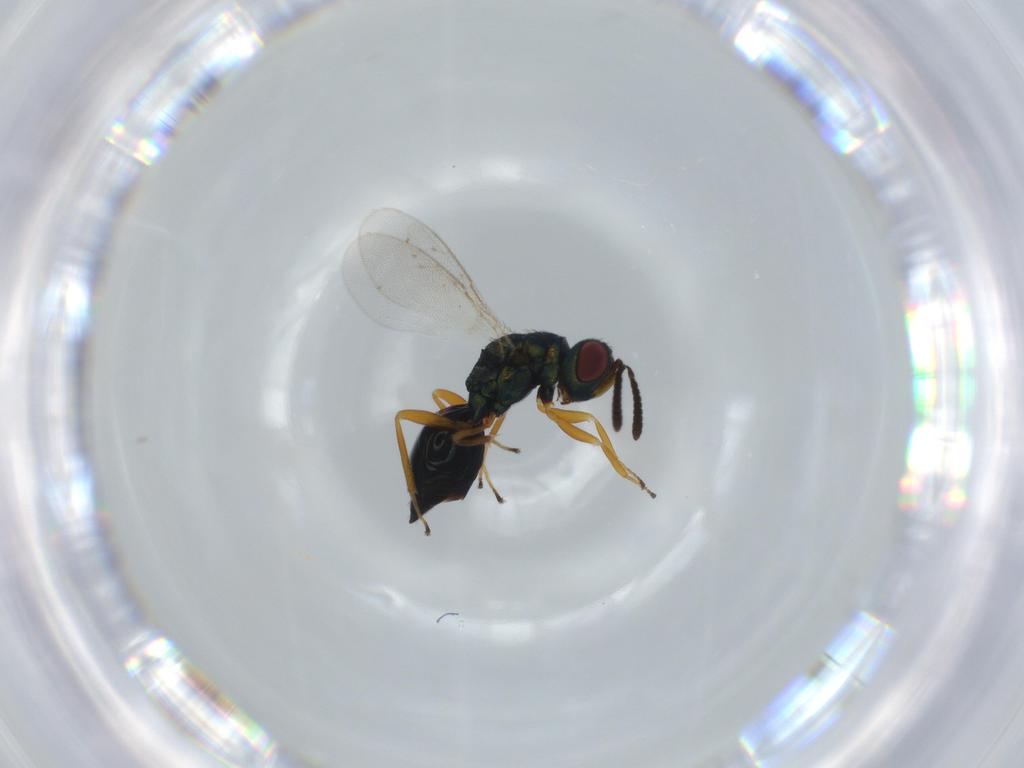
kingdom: Animalia
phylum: Arthropoda
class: Insecta
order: Hymenoptera
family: Pteromalidae
